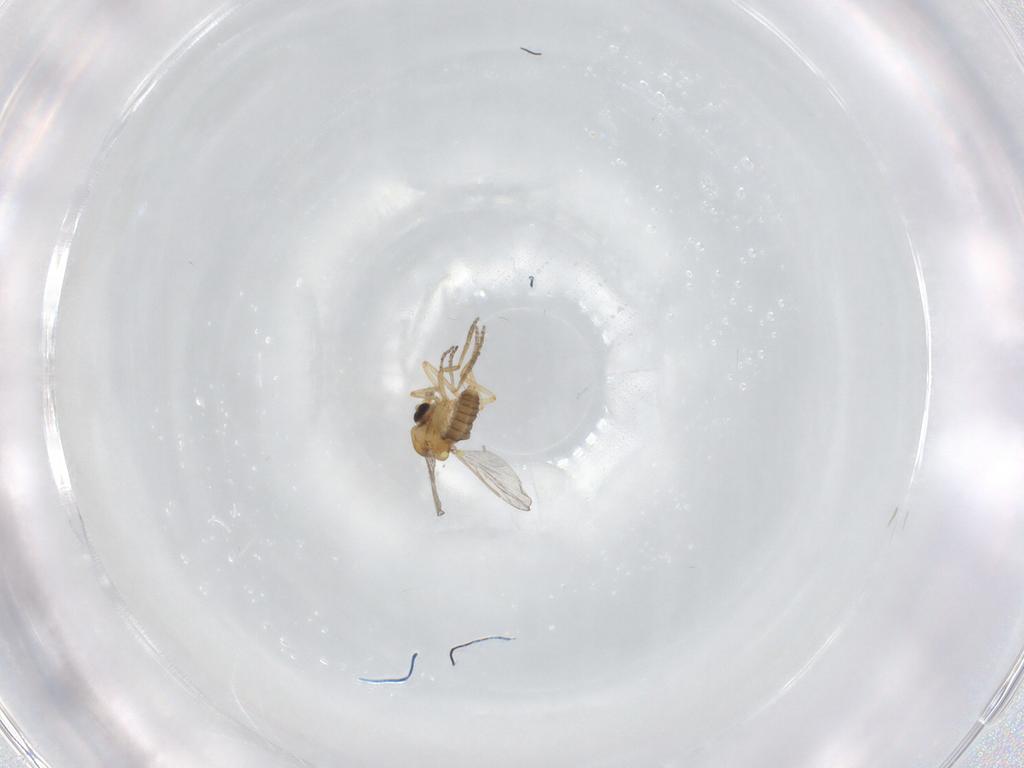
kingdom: Animalia
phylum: Arthropoda
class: Insecta
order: Diptera
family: Ceratopogonidae
